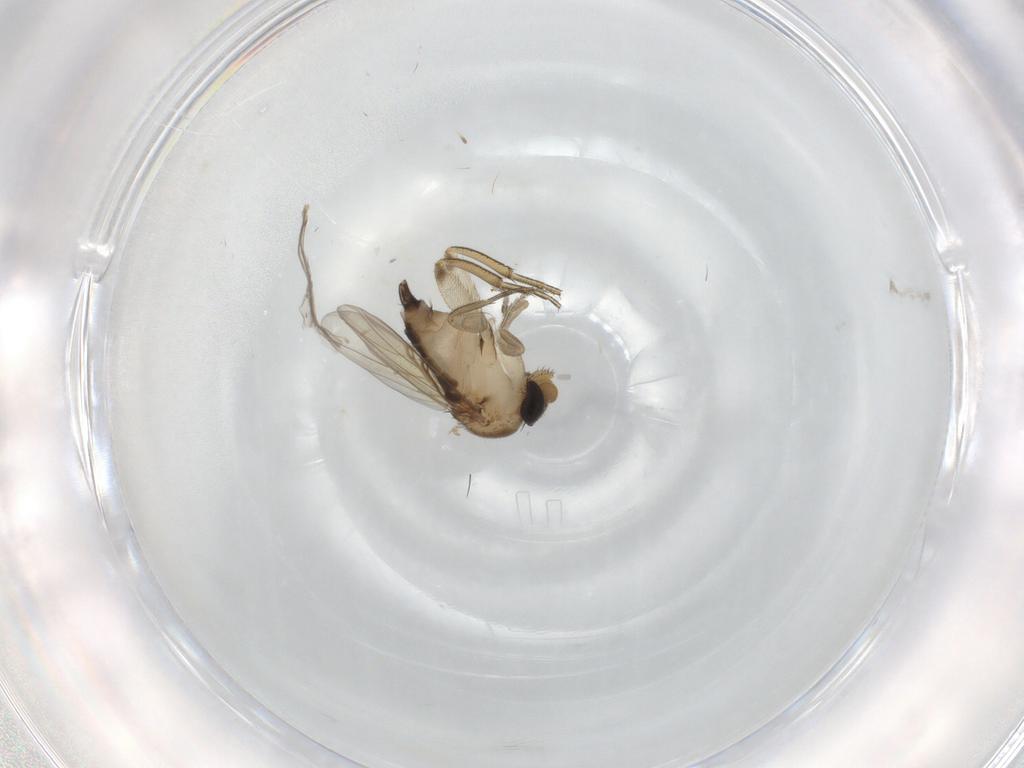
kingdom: Animalia
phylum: Arthropoda
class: Insecta
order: Diptera
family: Phoridae
